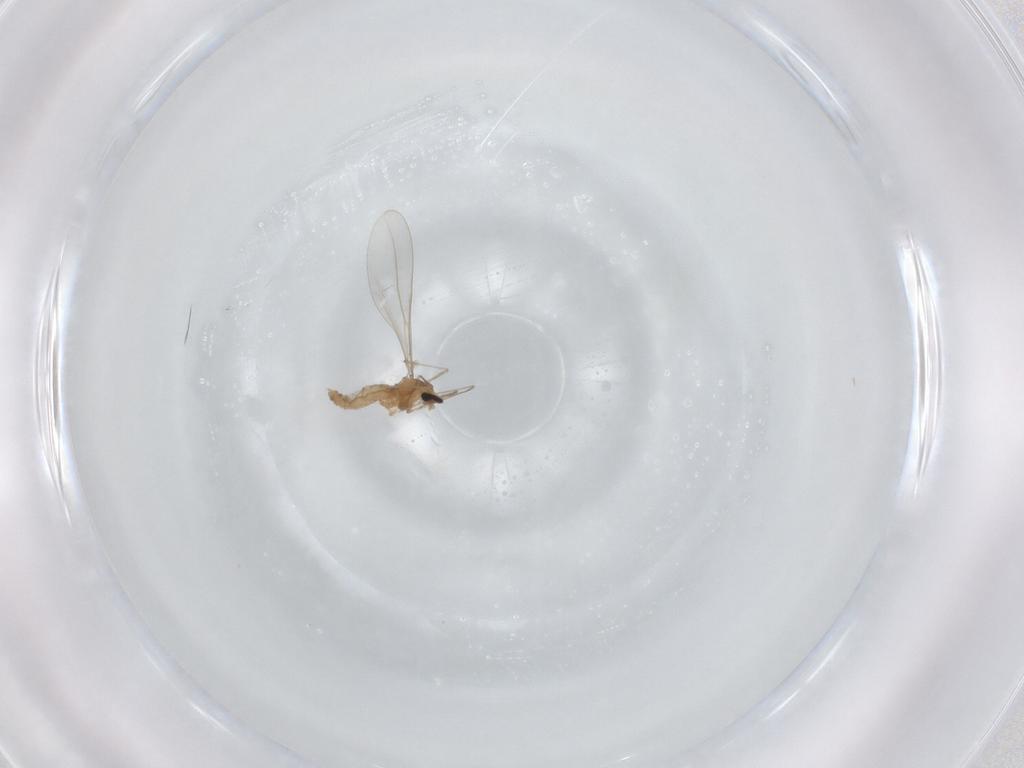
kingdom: Animalia
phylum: Arthropoda
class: Insecta
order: Diptera
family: Cecidomyiidae
